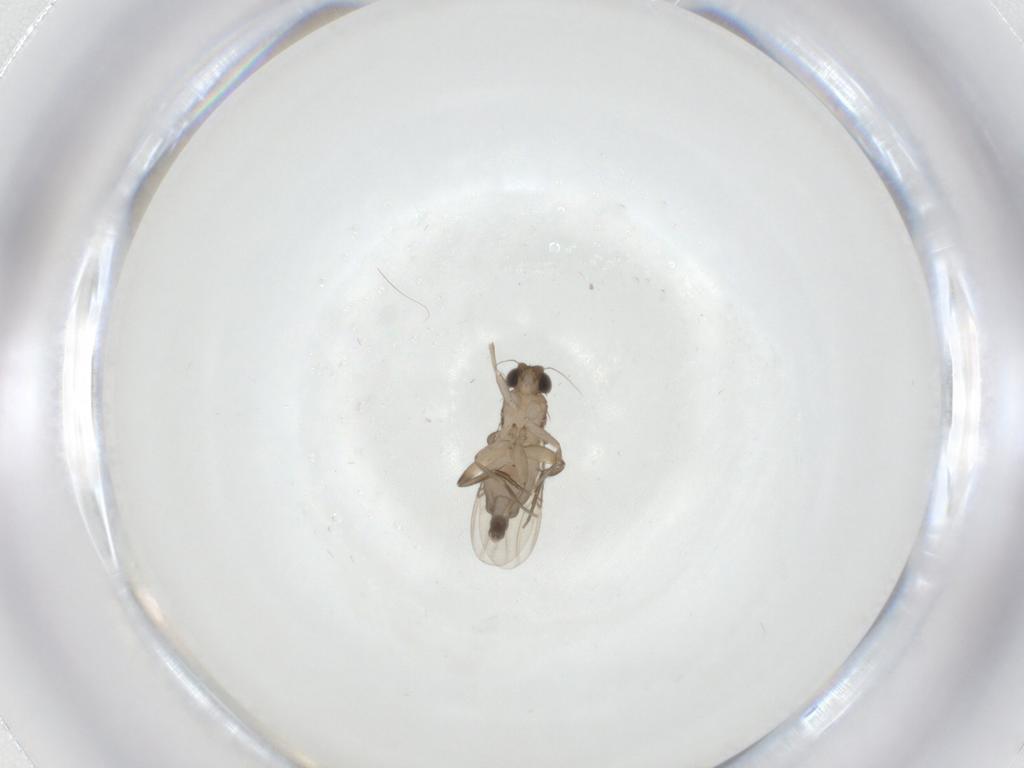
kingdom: Animalia
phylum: Arthropoda
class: Insecta
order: Diptera
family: Phoridae
